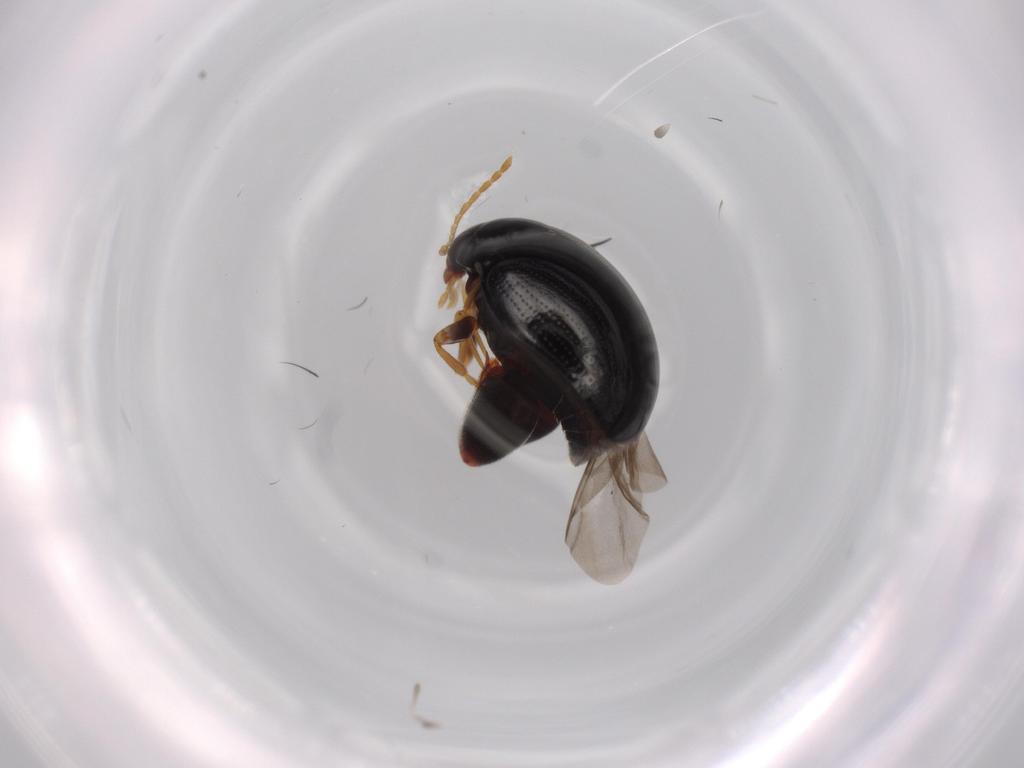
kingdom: Animalia
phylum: Arthropoda
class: Insecta
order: Coleoptera
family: Chrysomelidae
